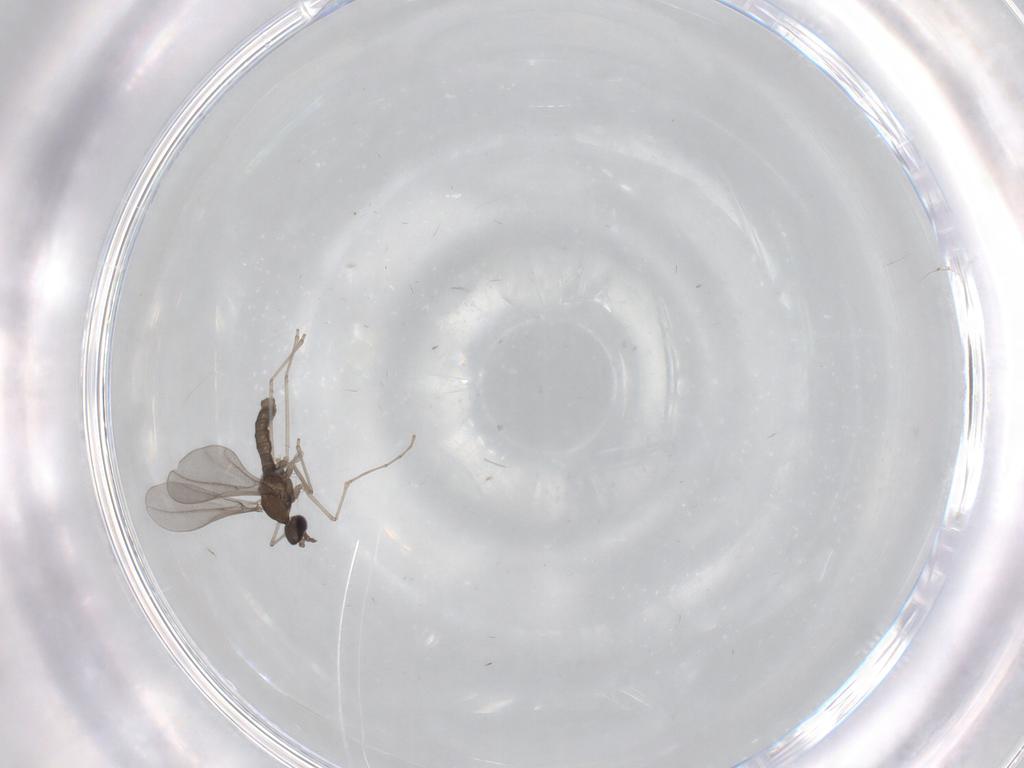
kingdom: Animalia
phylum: Arthropoda
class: Insecta
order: Diptera
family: Cecidomyiidae
